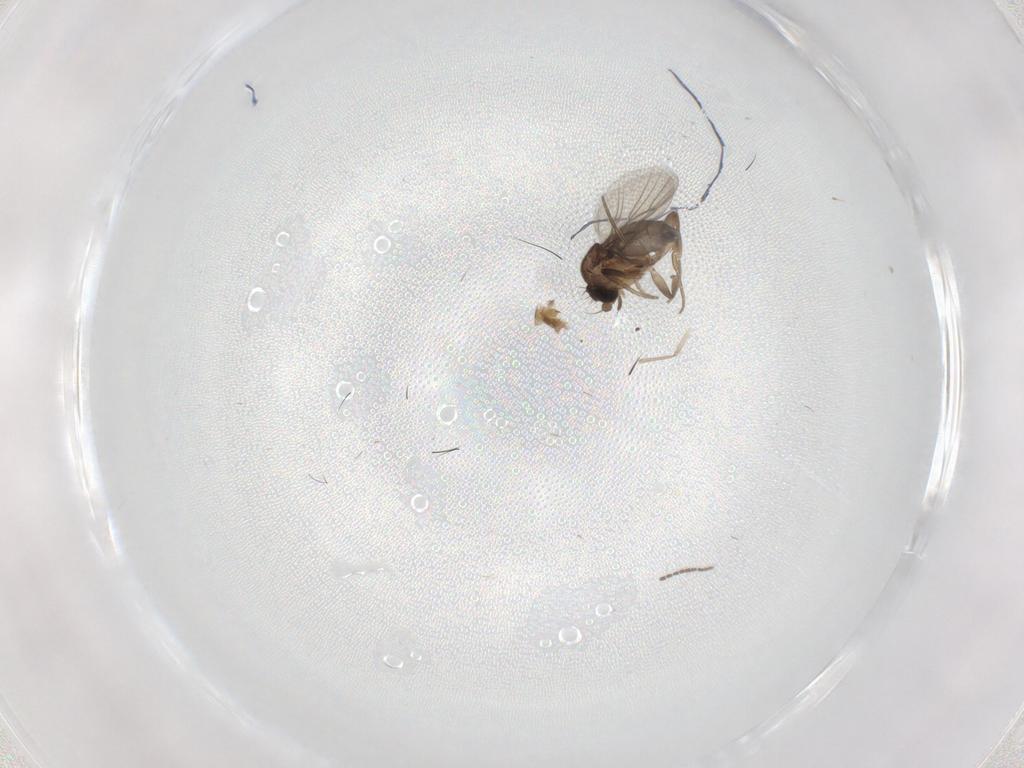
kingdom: Animalia
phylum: Arthropoda
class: Insecta
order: Diptera
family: Sciaridae
